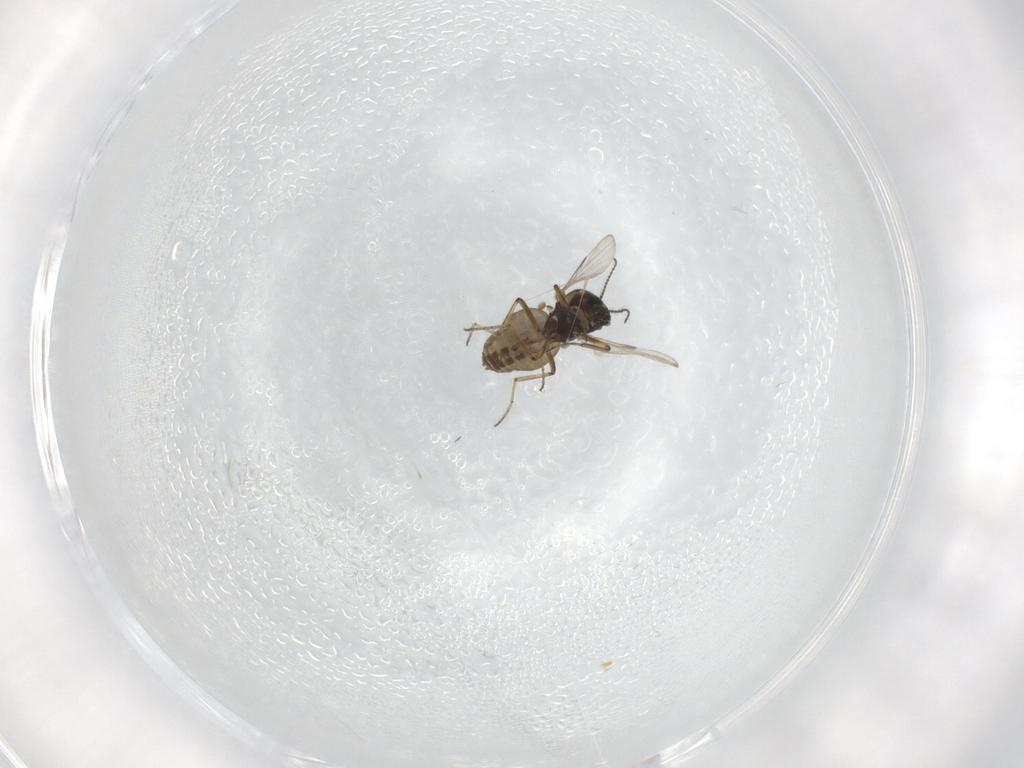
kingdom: Animalia
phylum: Arthropoda
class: Insecta
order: Diptera
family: Ceratopogonidae
